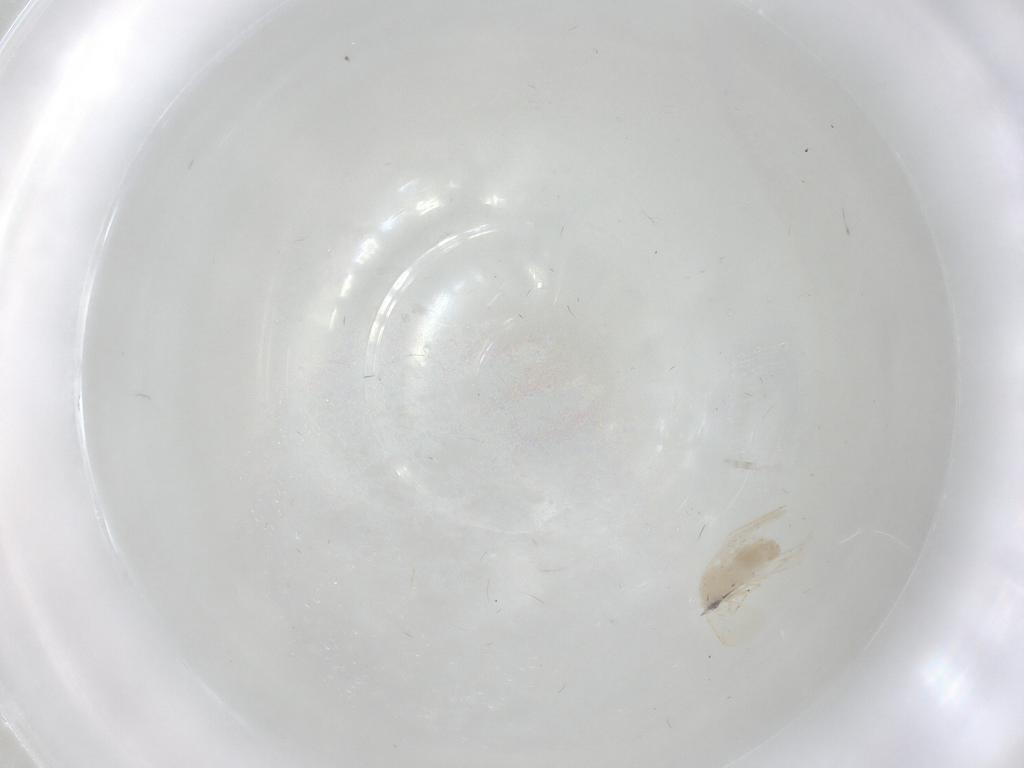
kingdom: Animalia
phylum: Arthropoda
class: Insecta
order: Hemiptera
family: Aleyrodidae
